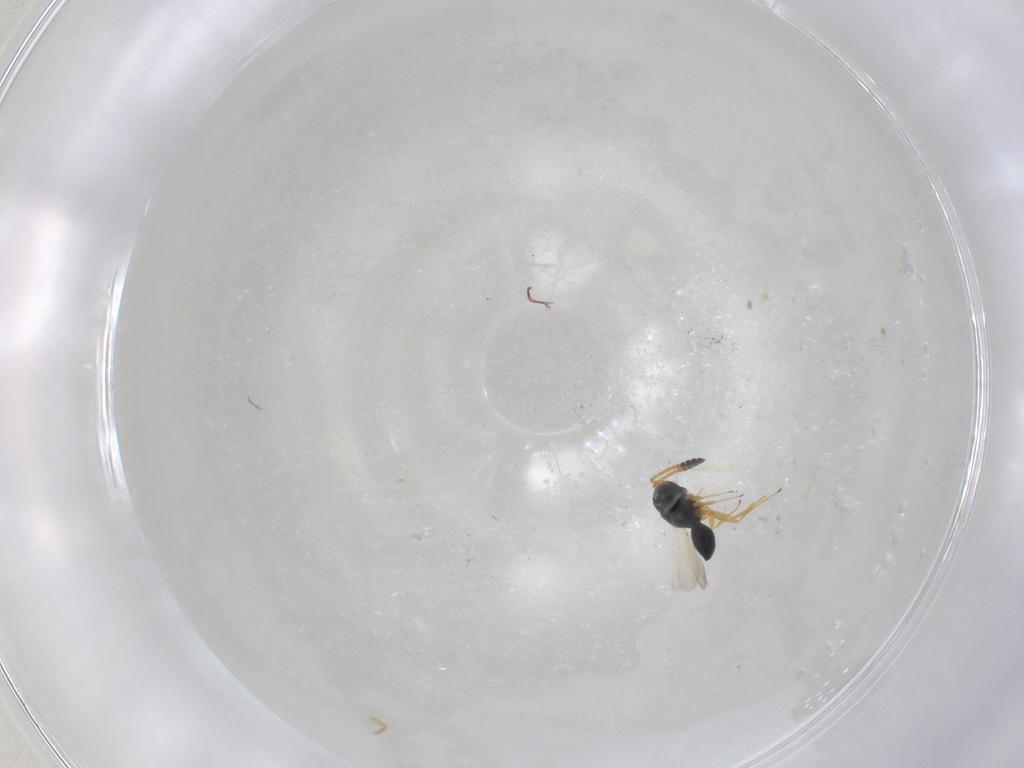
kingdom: Animalia
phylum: Arthropoda
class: Insecta
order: Hymenoptera
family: Scelionidae
